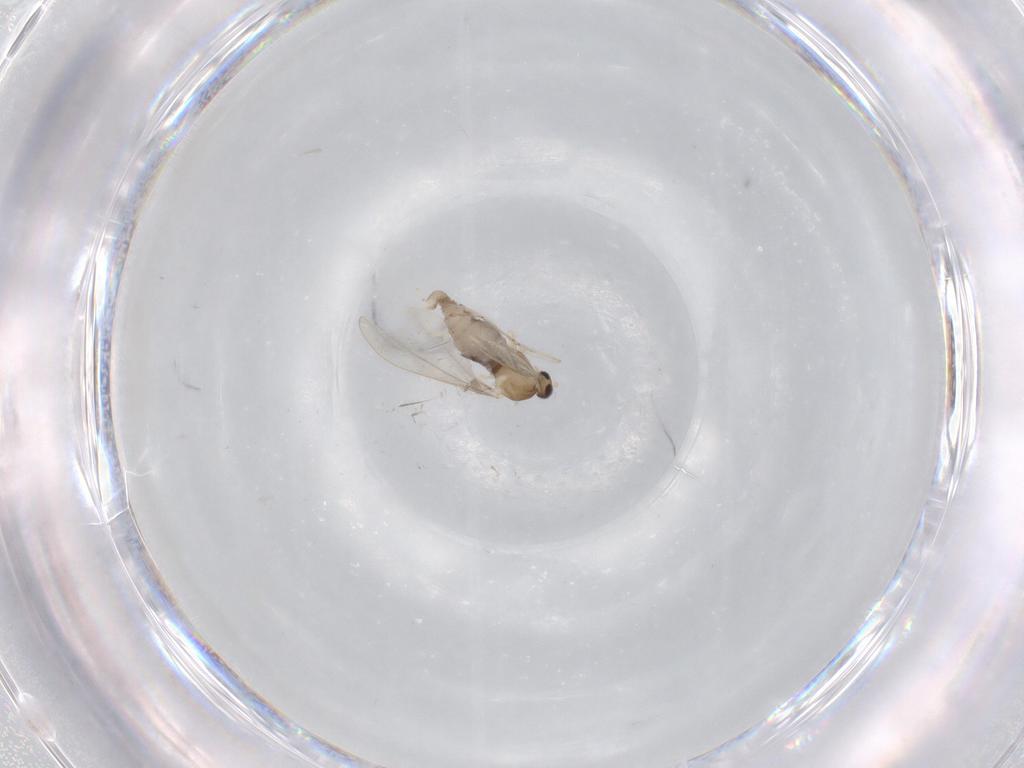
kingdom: Animalia
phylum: Arthropoda
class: Insecta
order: Diptera
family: Cecidomyiidae
